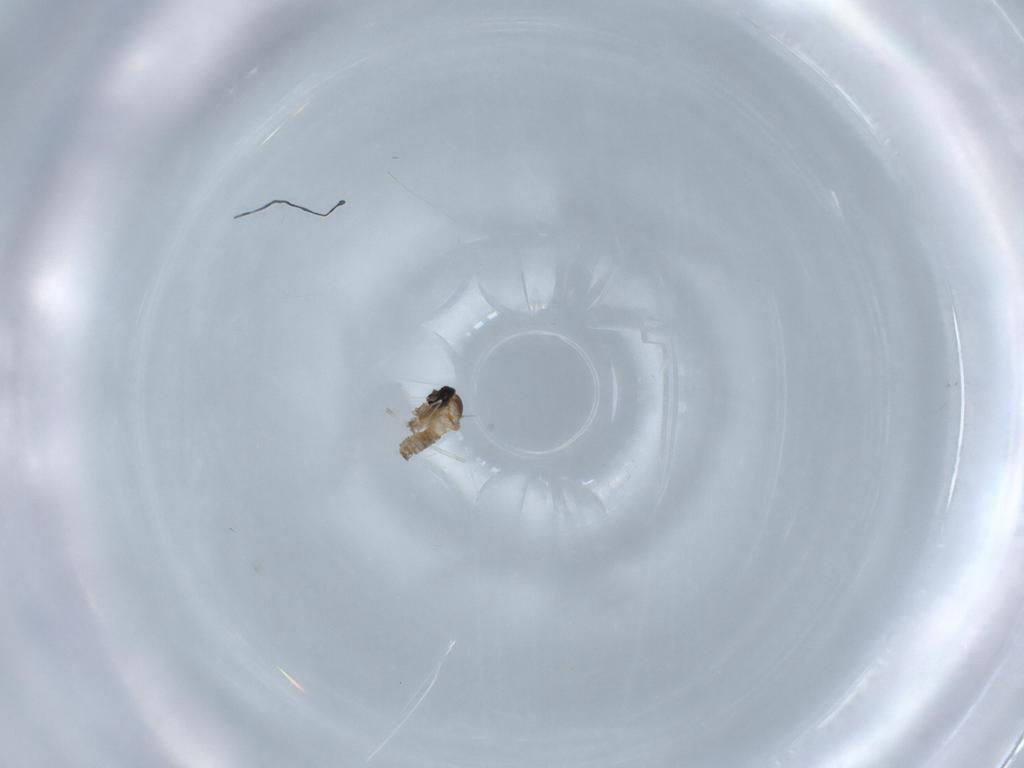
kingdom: Animalia
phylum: Arthropoda
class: Insecta
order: Diptera
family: Cecidomyiidae
